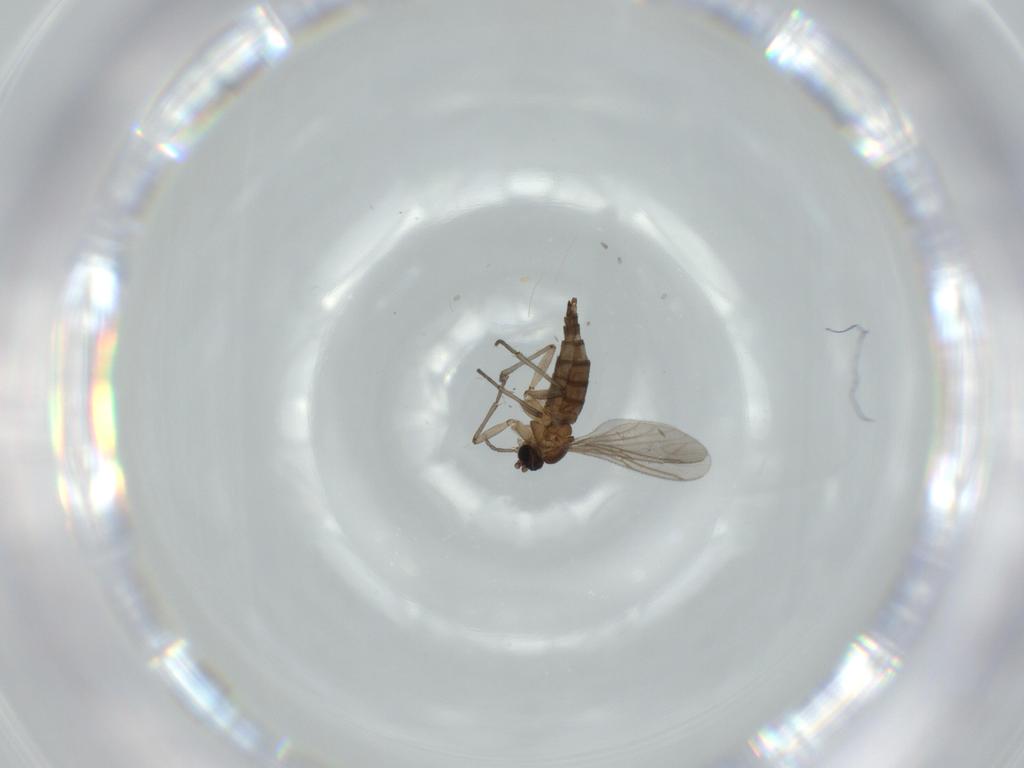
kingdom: Animalia
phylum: Arthropoda
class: Insecta
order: Diptera
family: Sciaridae
